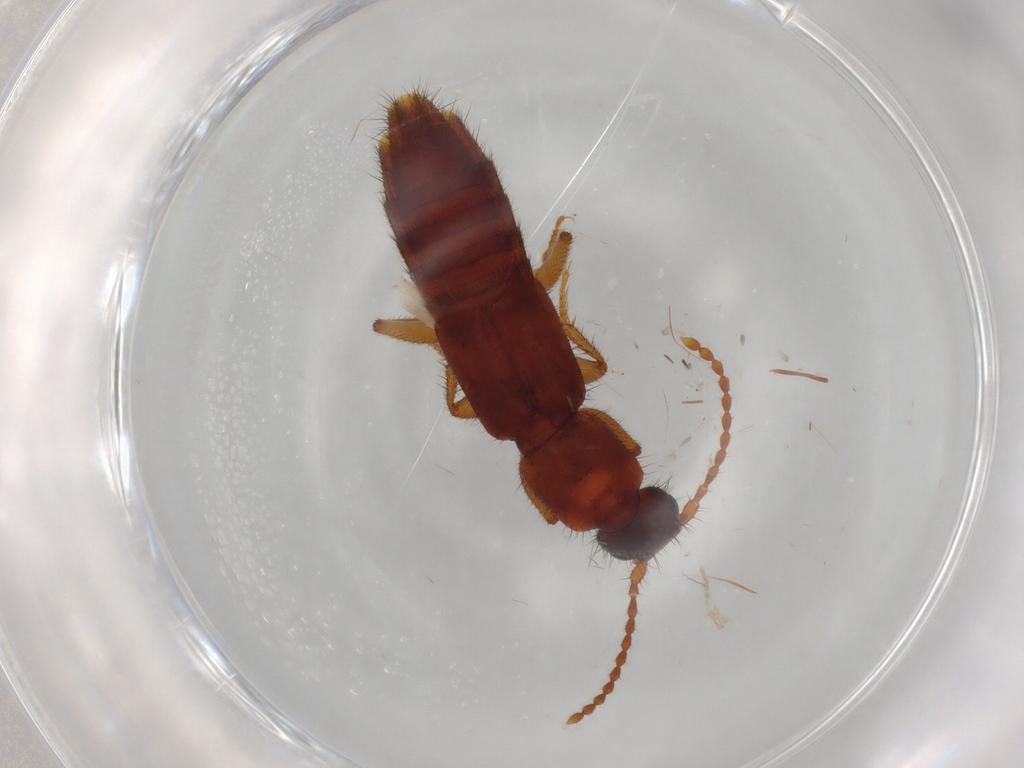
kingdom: Animalia
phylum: Arthropoda
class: Insecta
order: Coleoptera
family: Staphylinidae
